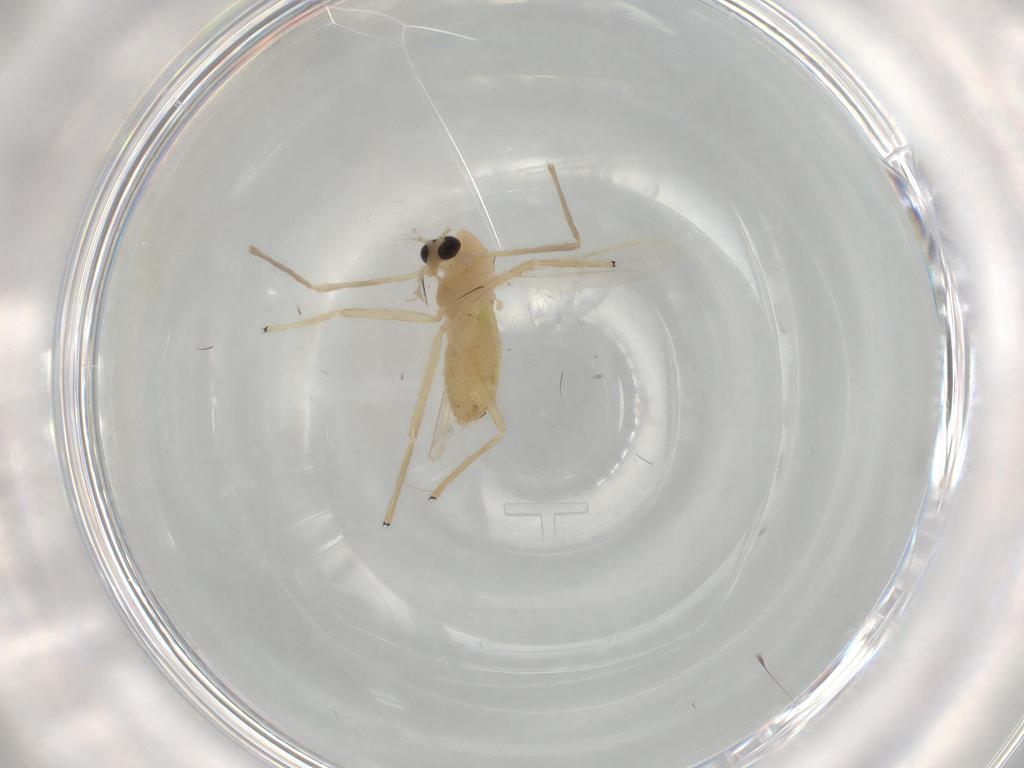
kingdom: Animalia
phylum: Arthropoda
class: Insecta
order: Diptera
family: Chironomidae
